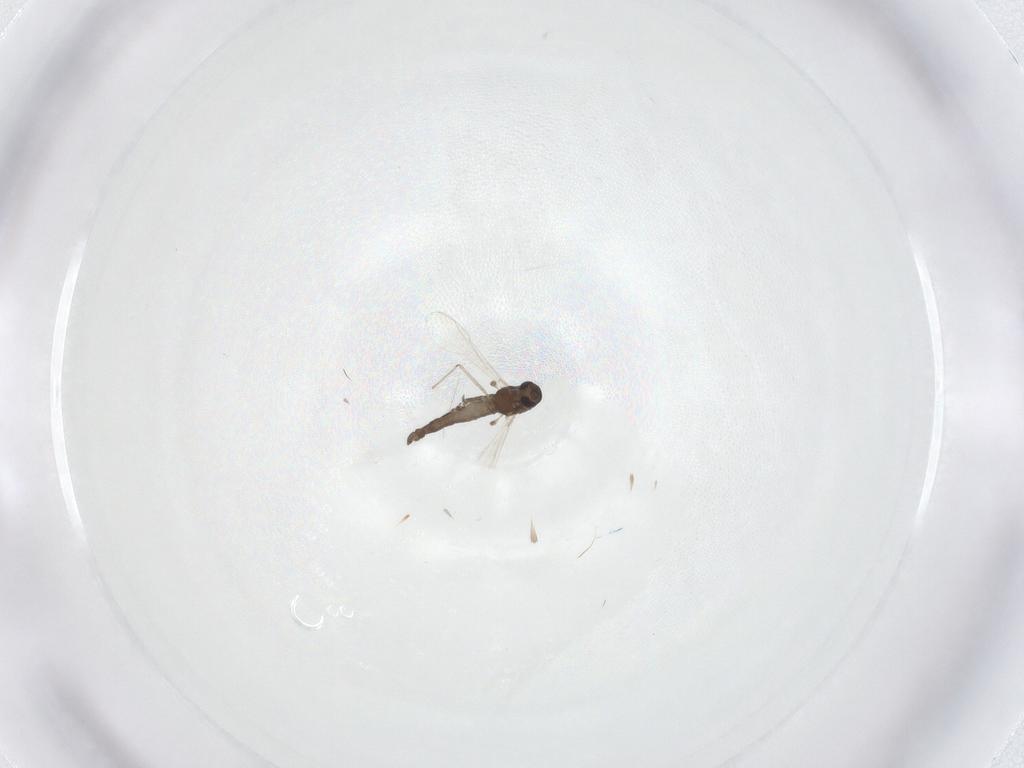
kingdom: Animalia
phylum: Arthropoda
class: Insecta
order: Diptera
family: Chironomidae
